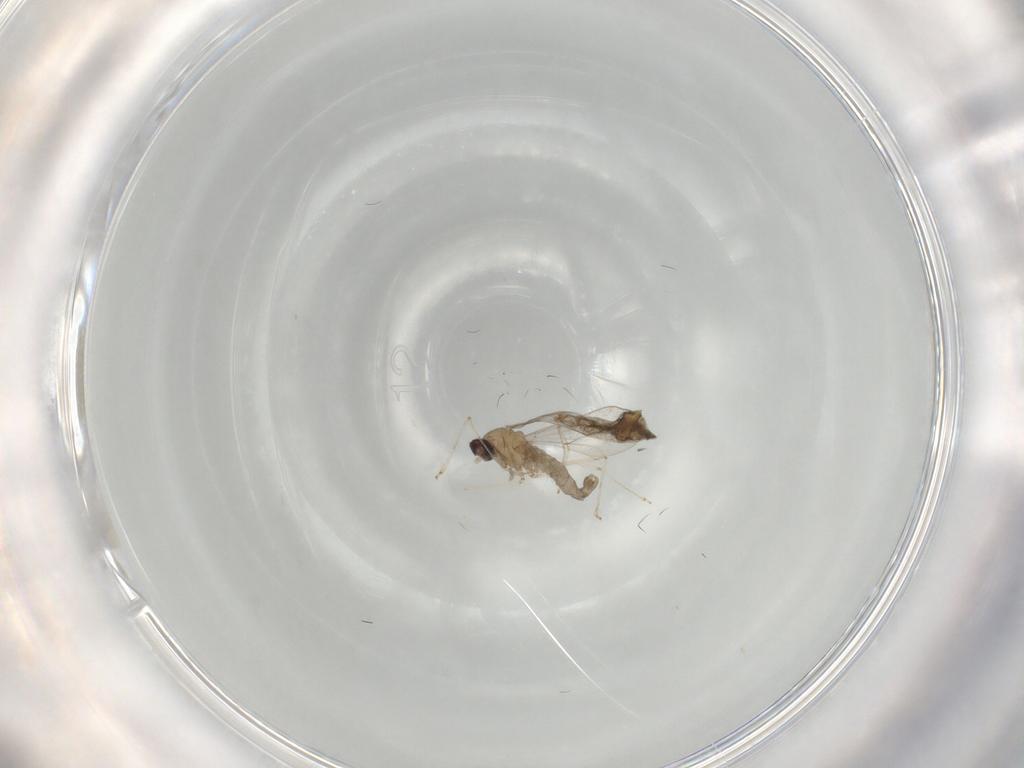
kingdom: Animalia
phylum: Arthropoda
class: Insecta
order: Diptera
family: Cecidomyiidae
